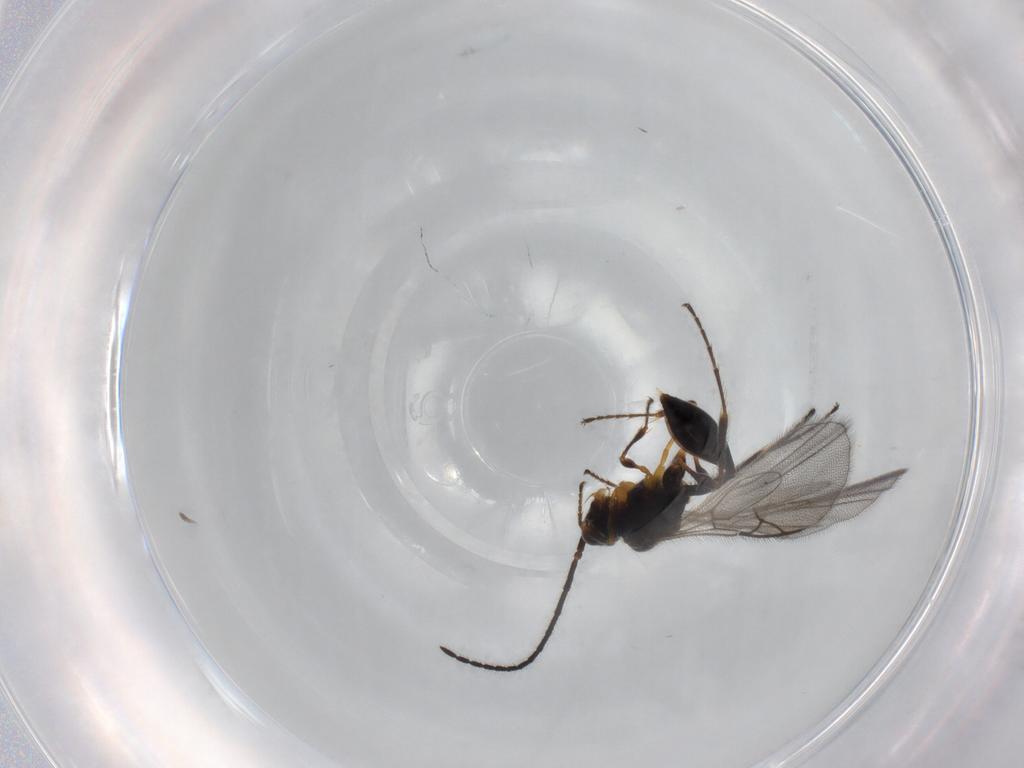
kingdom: Animalia
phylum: Arthropoda
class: Insecta
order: Hymenoptera
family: Diapriidae
